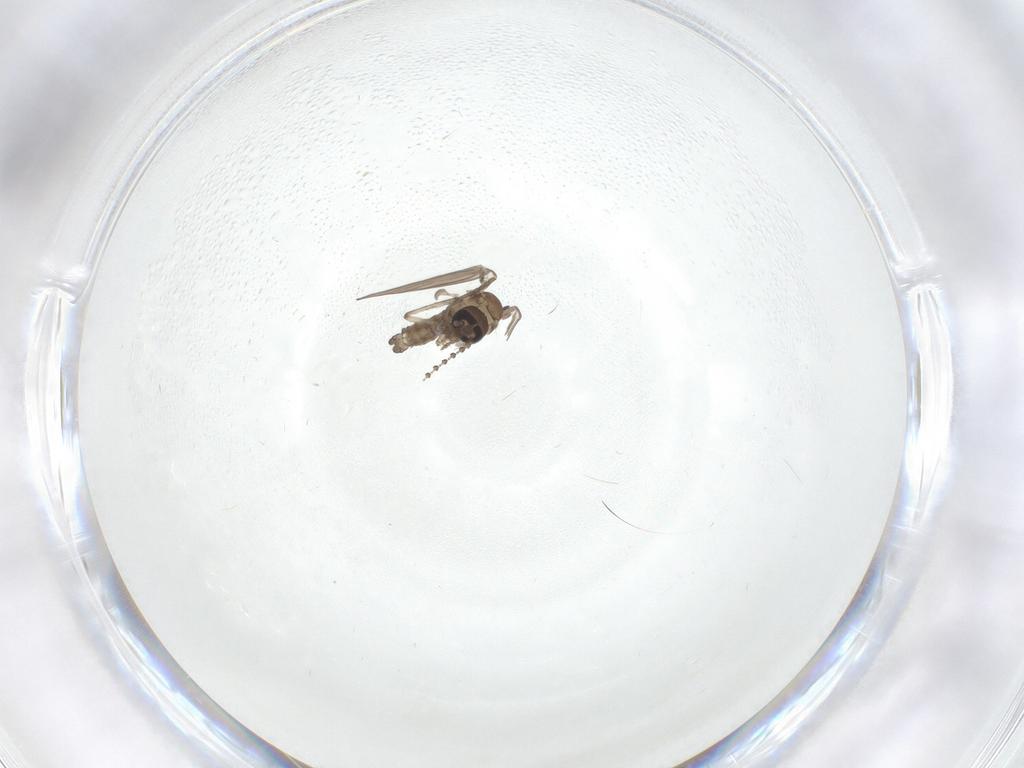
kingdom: Animalia
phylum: Arthropoda
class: Insecta
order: Diptera
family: Psychodidae
